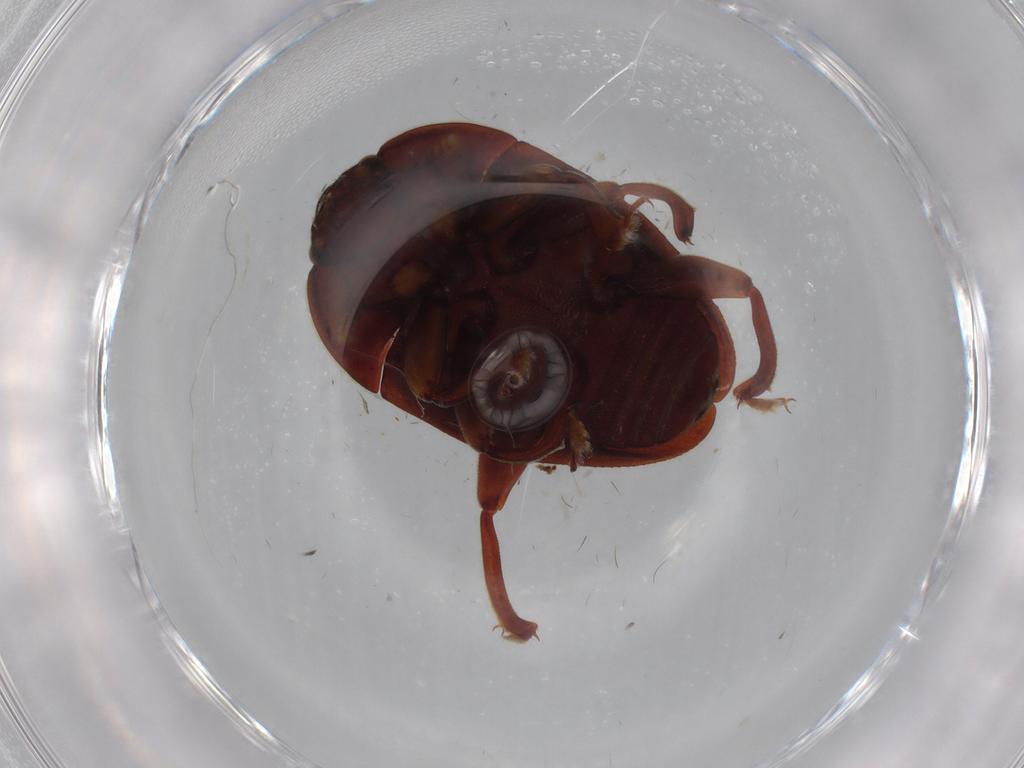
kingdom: Animalia
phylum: Arthropoda
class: Insecta
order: Coleoptera
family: Nitidulidae
